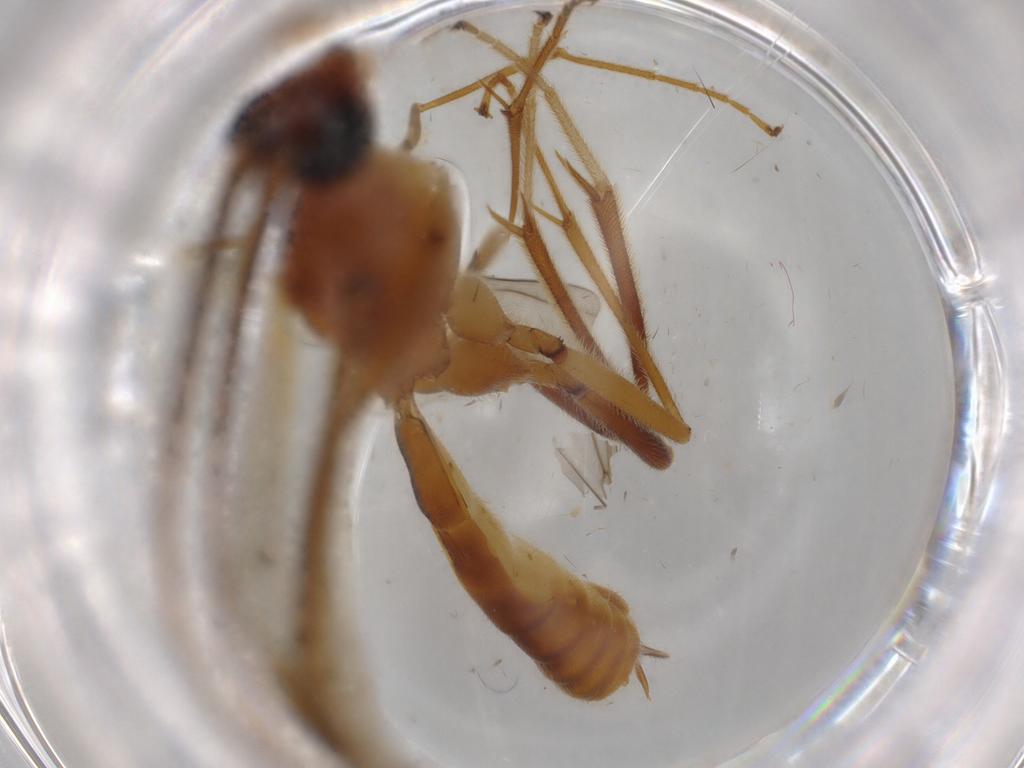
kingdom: Animalia
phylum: Arthropoda
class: Insecta
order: Hymenoptera
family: Braconidae
